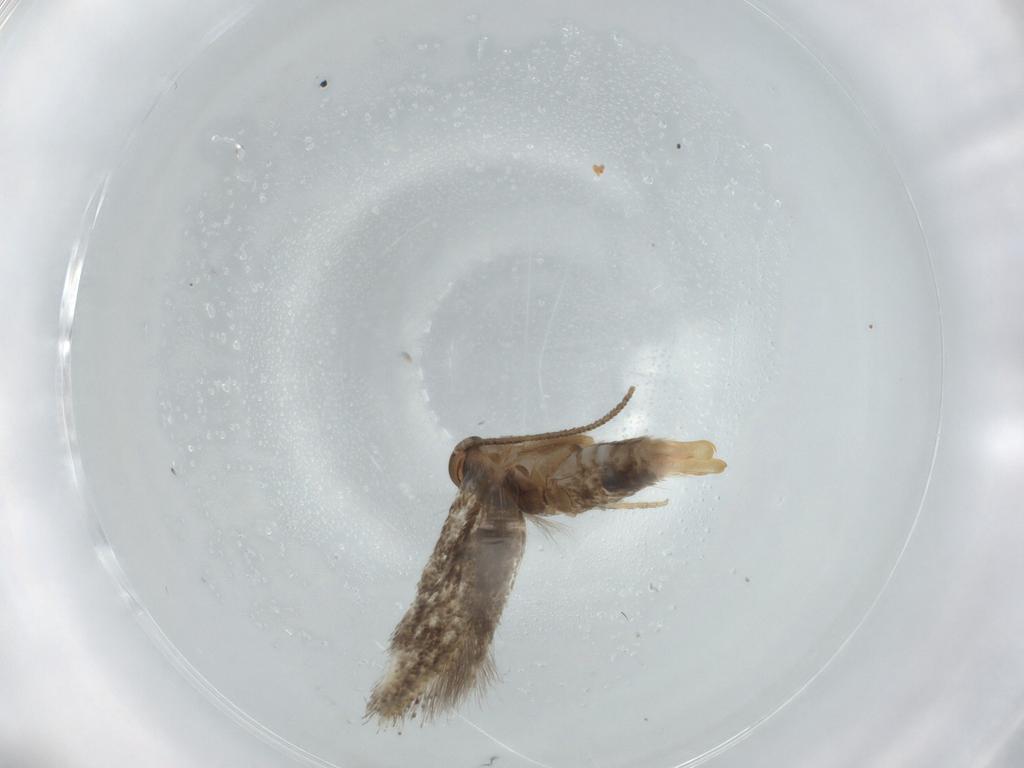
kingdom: Animalia
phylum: Arthropoda
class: Insecta
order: Lepidoptera
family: Elachistidae
